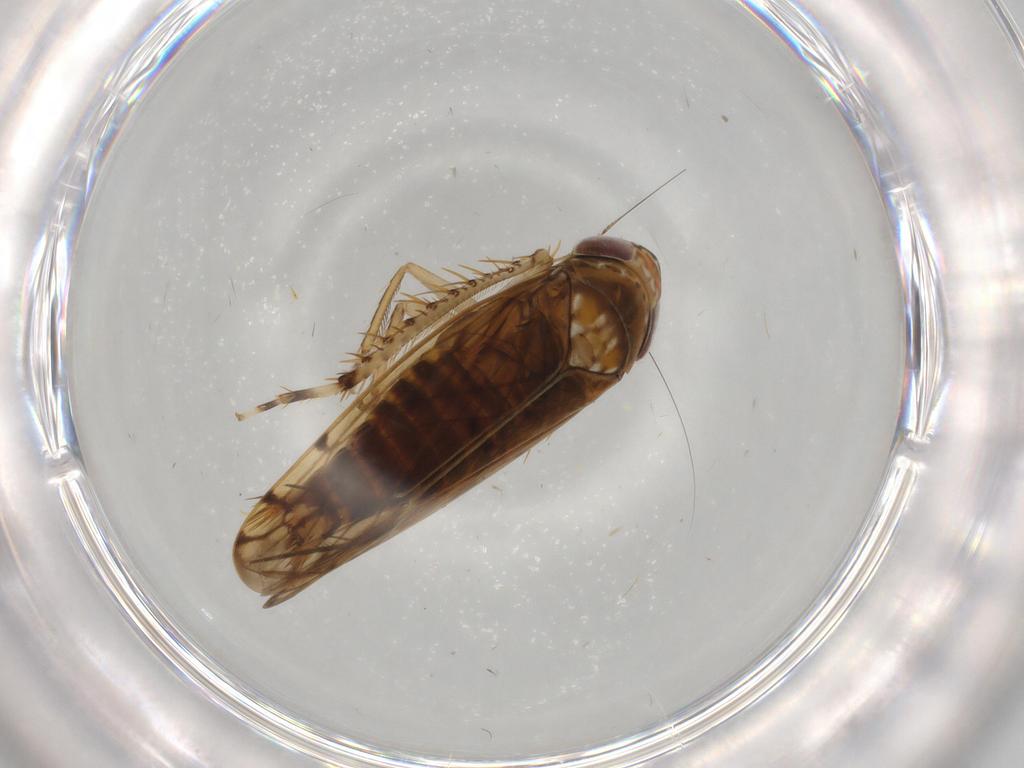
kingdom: Animalia
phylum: Arthropoda
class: Insecta
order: Hemiptera
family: Cicadellidae
